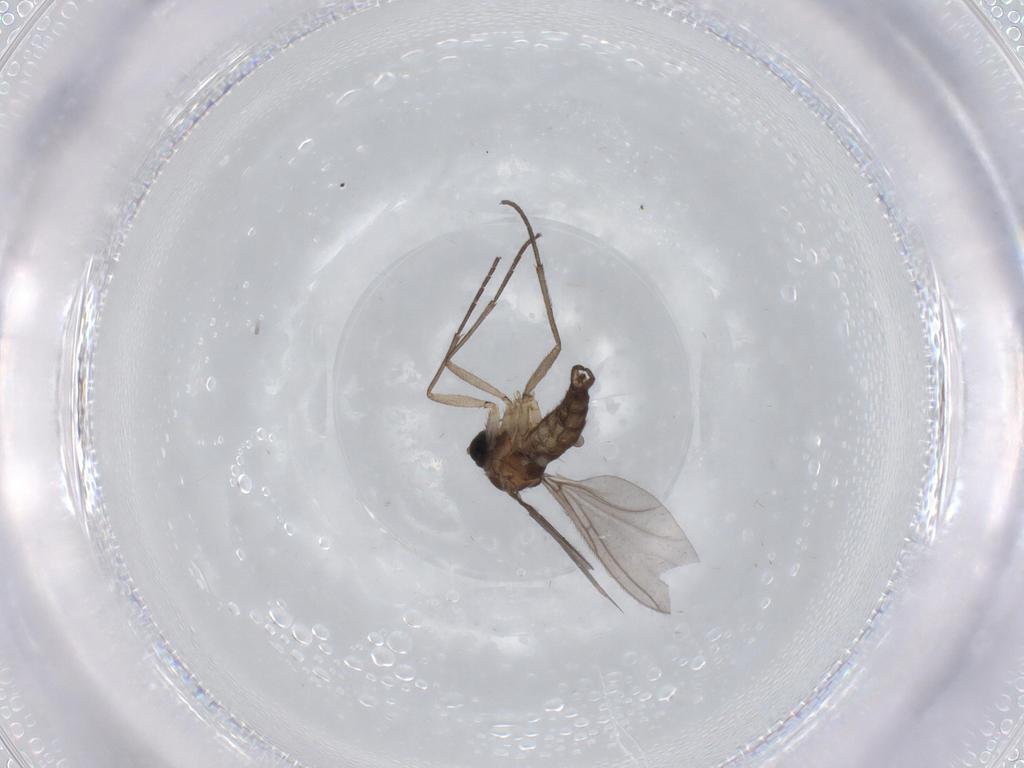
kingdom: Animalia
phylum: Arthropoda
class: Insecta
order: Diptera
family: Sciaridae
